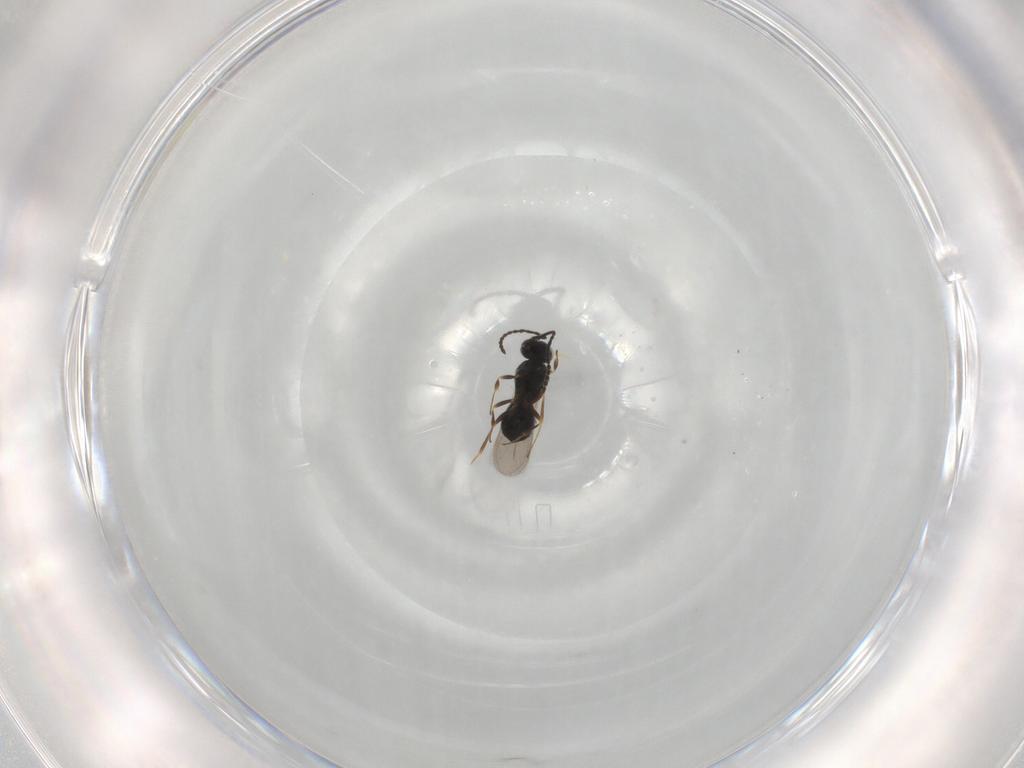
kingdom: Animalia
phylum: Arthropoda
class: Insecta
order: Hymenoptera
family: Scelionidae
